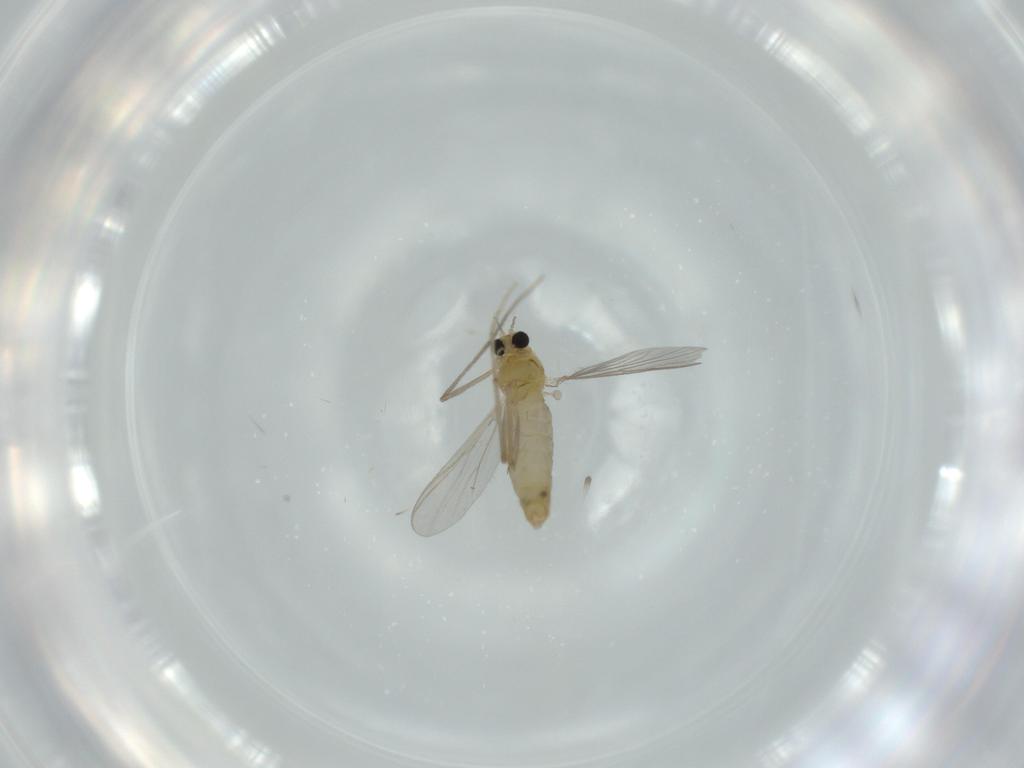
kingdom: Animalia
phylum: Arthropoda
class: Insecta
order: Diptera
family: Chironomidae
